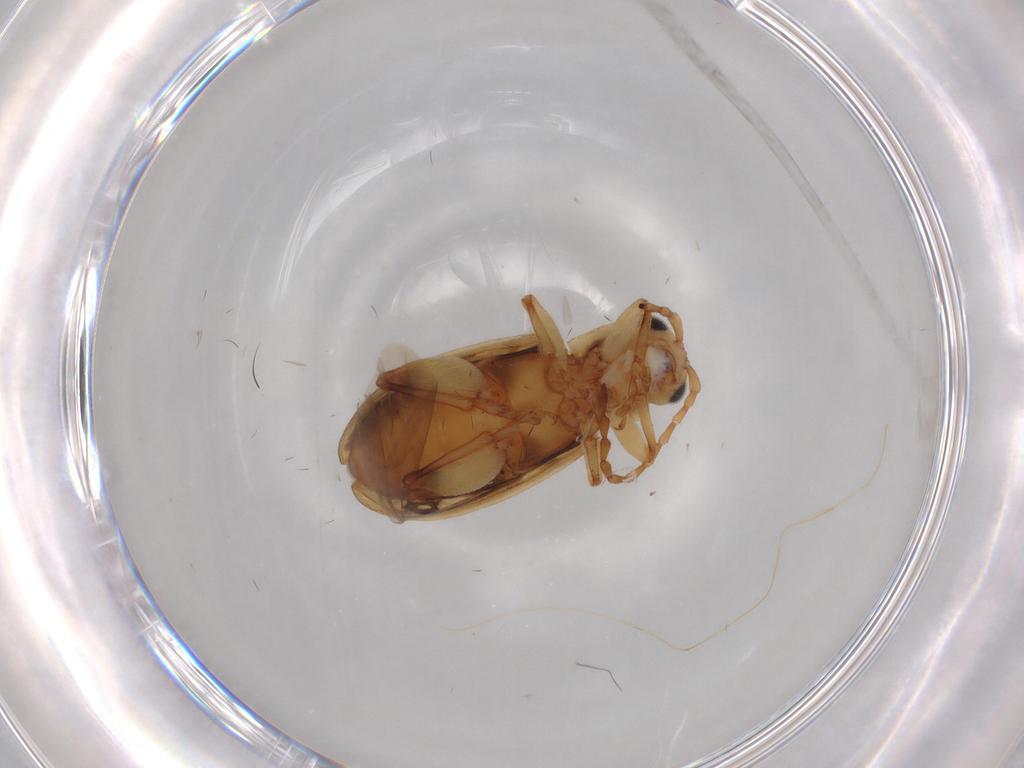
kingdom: Animalia
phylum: Arthropoda
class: Insecta
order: Coleoptera
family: Chrysomelidae
